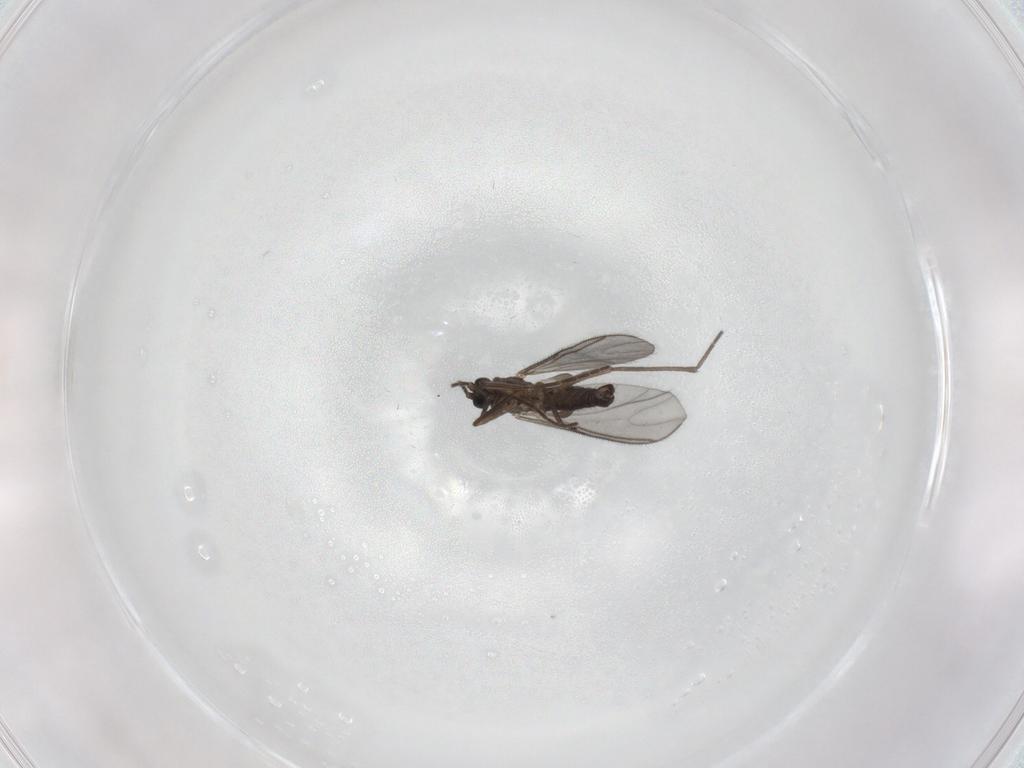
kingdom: Animalia
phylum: Arthropoda
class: Insecta
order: Diptera
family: Sciaridae
